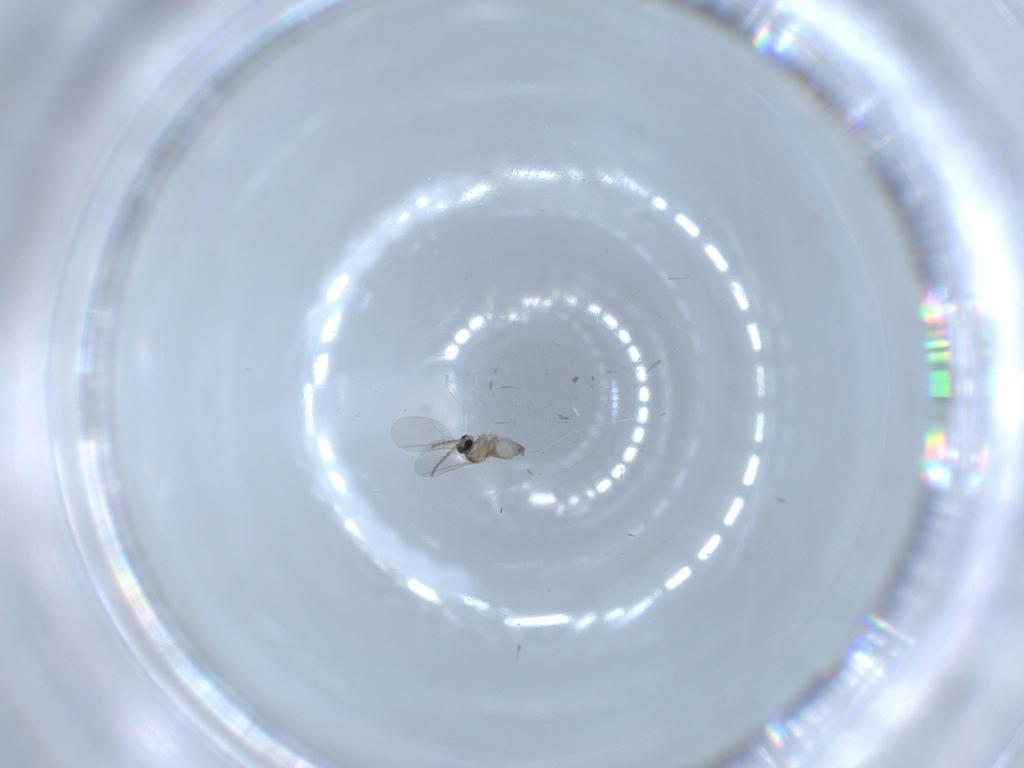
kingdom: Animalia
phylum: Arthropoda
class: Insecta
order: Diptera
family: Cecidomyiidae
